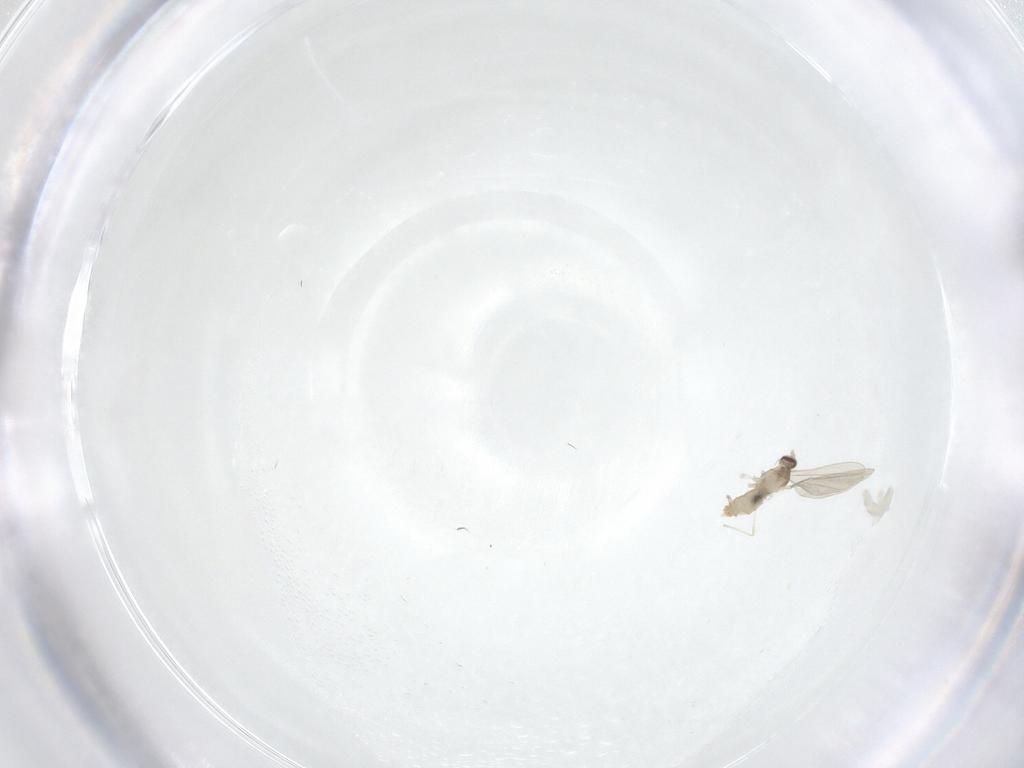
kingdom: Animalia
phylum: Arthropoda
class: Insecta
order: Diptera
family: Cecidomyiidae
